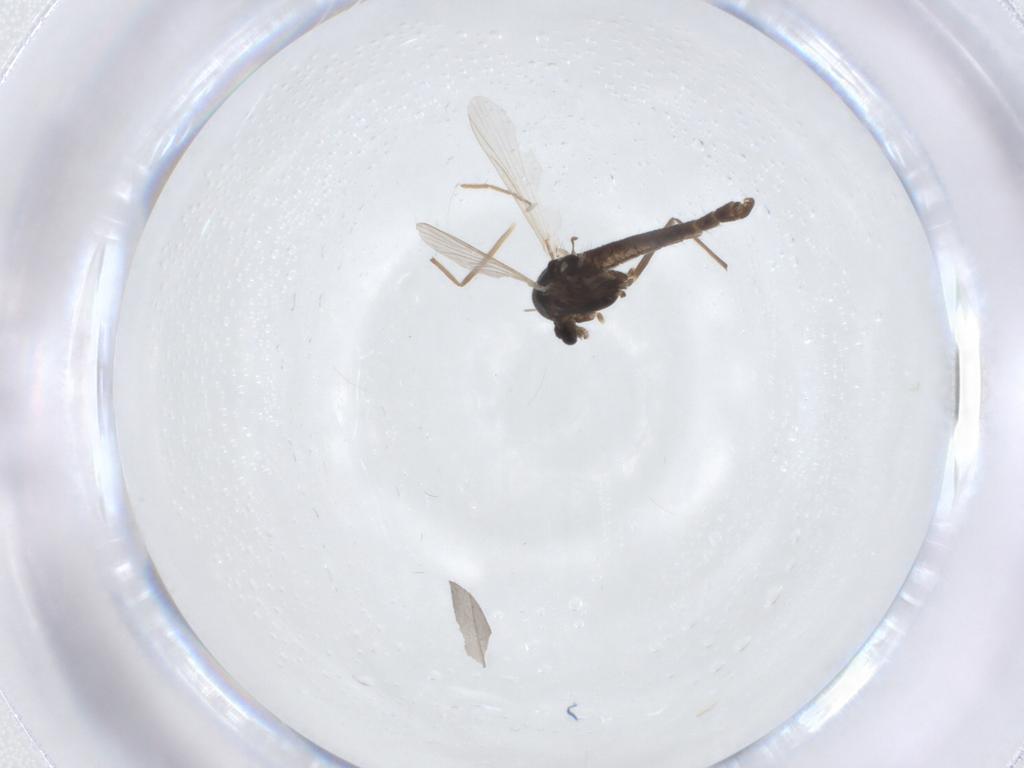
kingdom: Animalia
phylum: Arthropoda
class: Insecta
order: Diptera
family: Chironomidae
